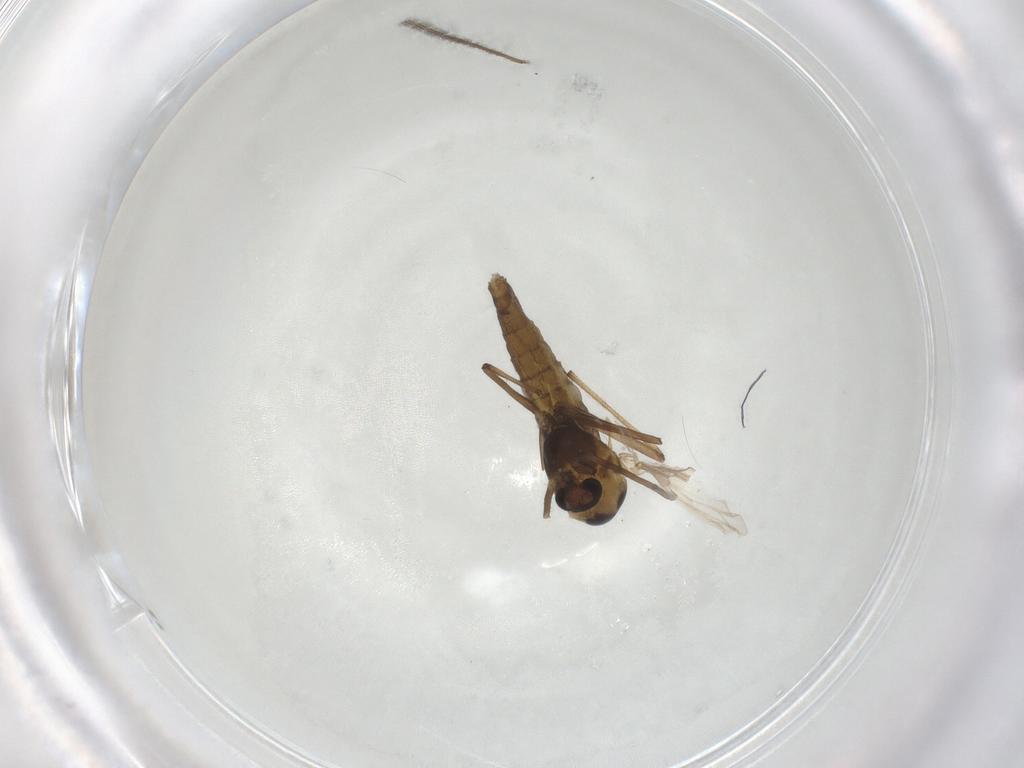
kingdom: Animalia
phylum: Arthropoda
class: Insecta
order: Diptera
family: Chironomidae
